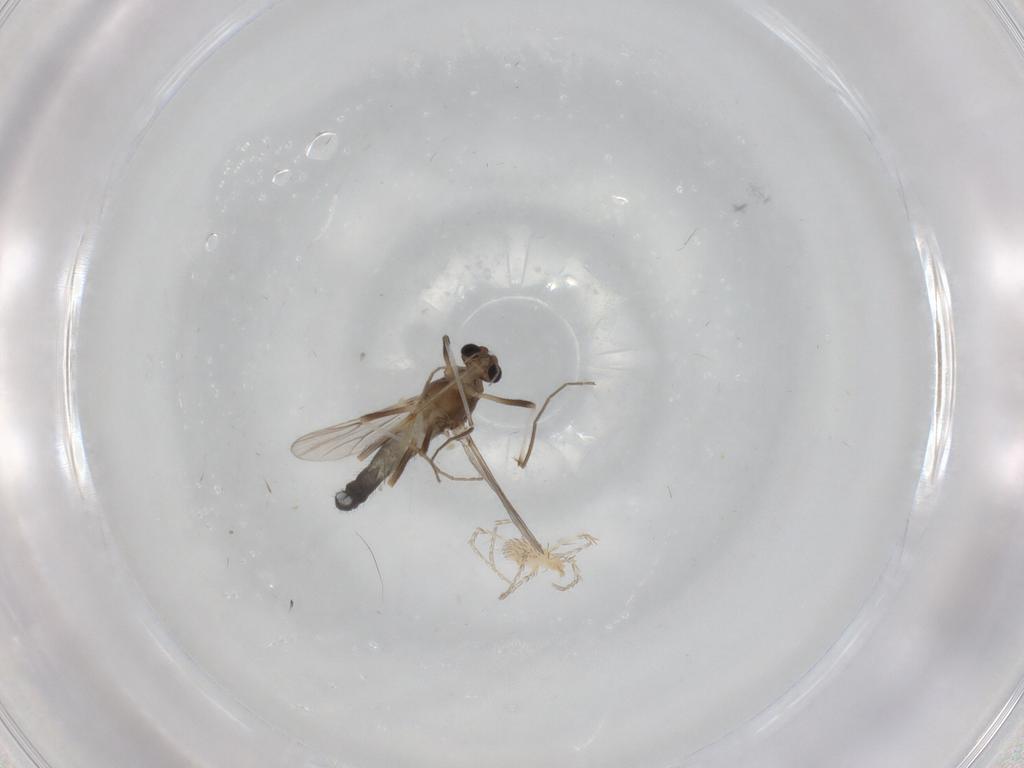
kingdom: Animalia
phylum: Arthropoda
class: Insecta
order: Diptera
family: Chironomidae
